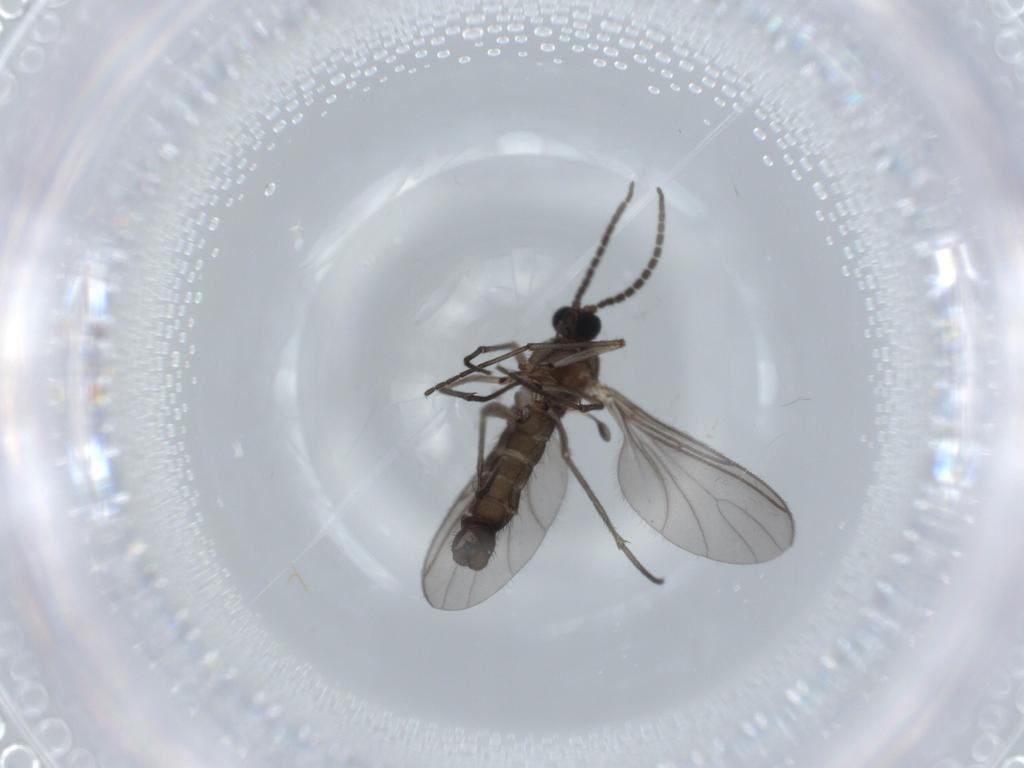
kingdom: Animalia
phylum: Arthropoda
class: Insecta
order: Diptera
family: Sciaridae
